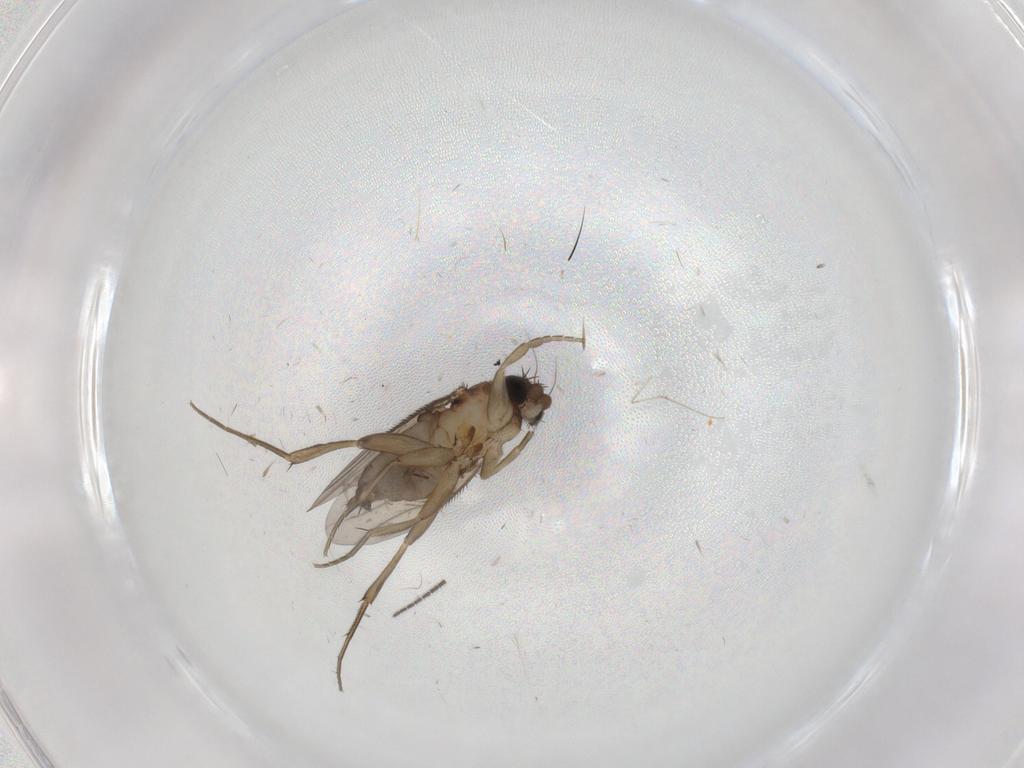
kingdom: Animalia
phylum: Arthropoda
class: Insecta
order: Diptera
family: Phoridae
